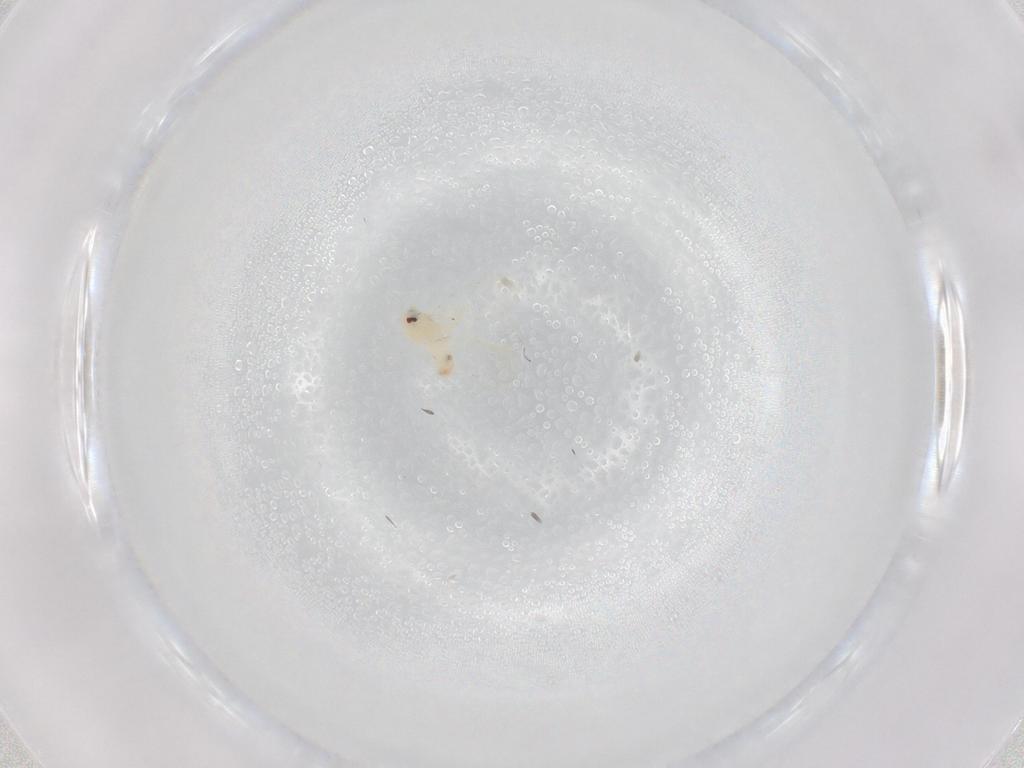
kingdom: Animalia
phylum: Arthropoda
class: Insecta
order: Hemiptera
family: Aleyrodidae
